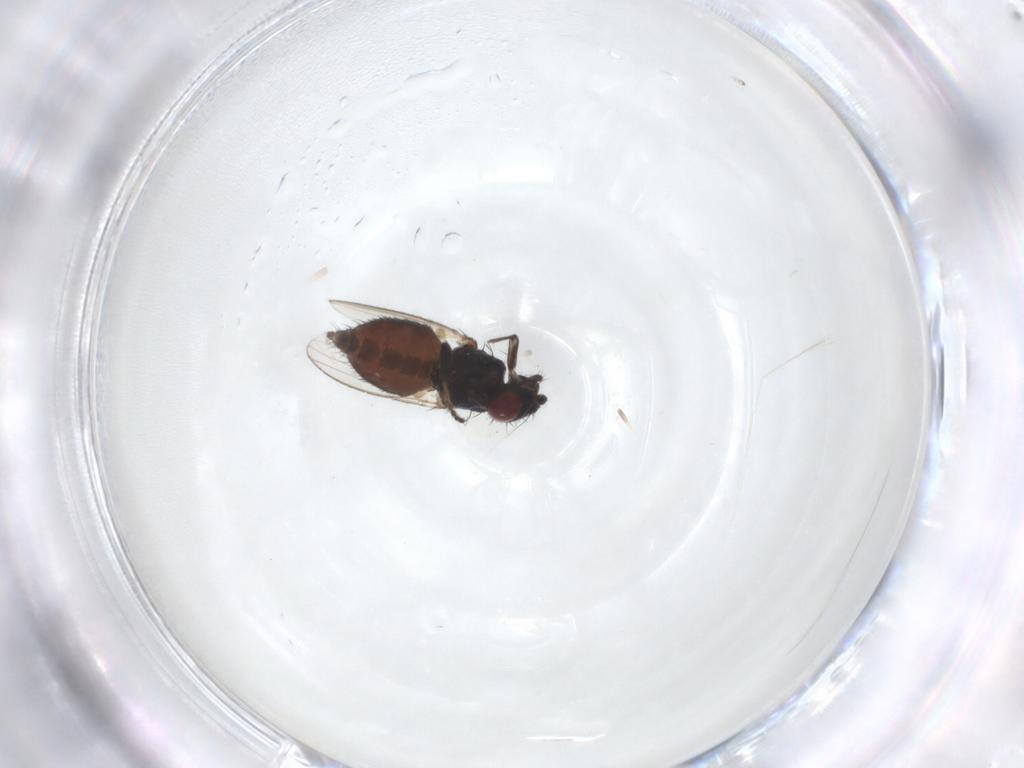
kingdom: Animalia
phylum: Arthropoda
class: Insecta
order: Diptera
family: Milichiidae
